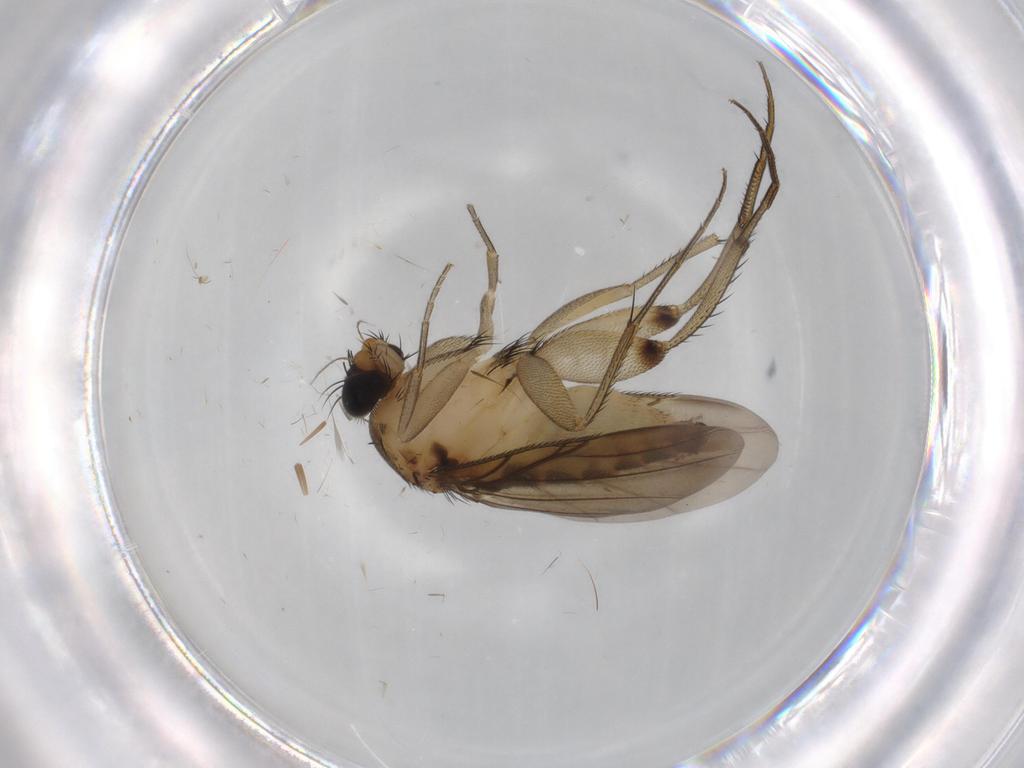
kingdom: Animalia
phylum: Arthropoda
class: Insecta
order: Diptera
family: Cecidomyiidae
